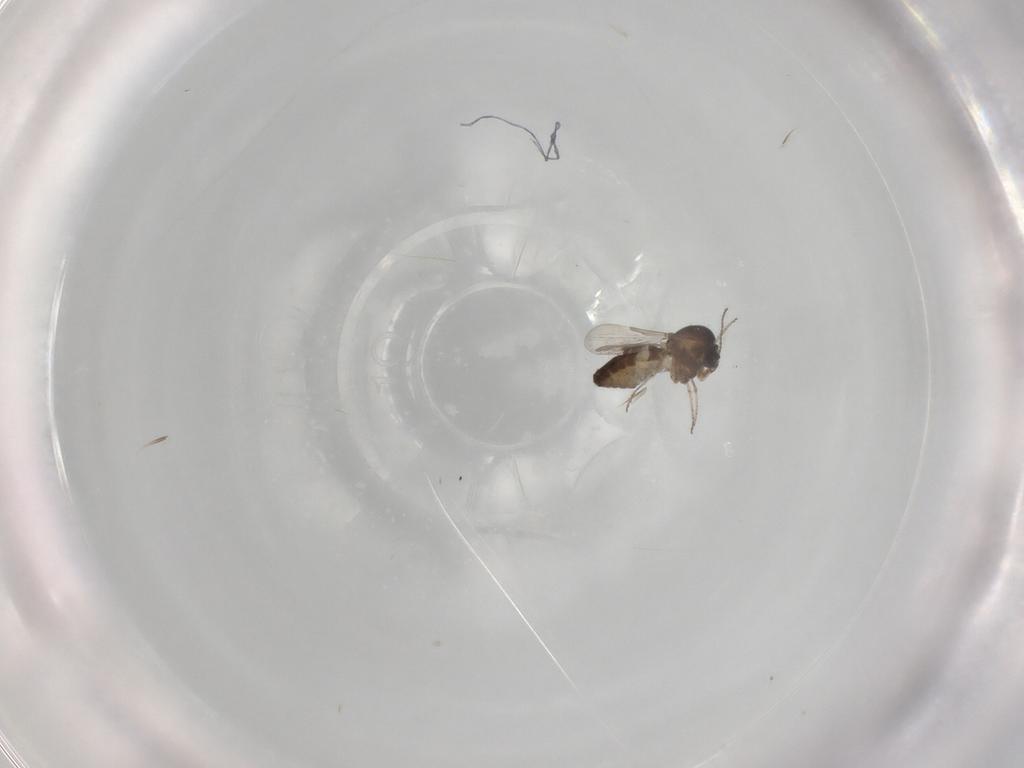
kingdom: Animalia
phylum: Arthropoda
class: Insecta
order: Diptera
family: Ceratopogonidae
